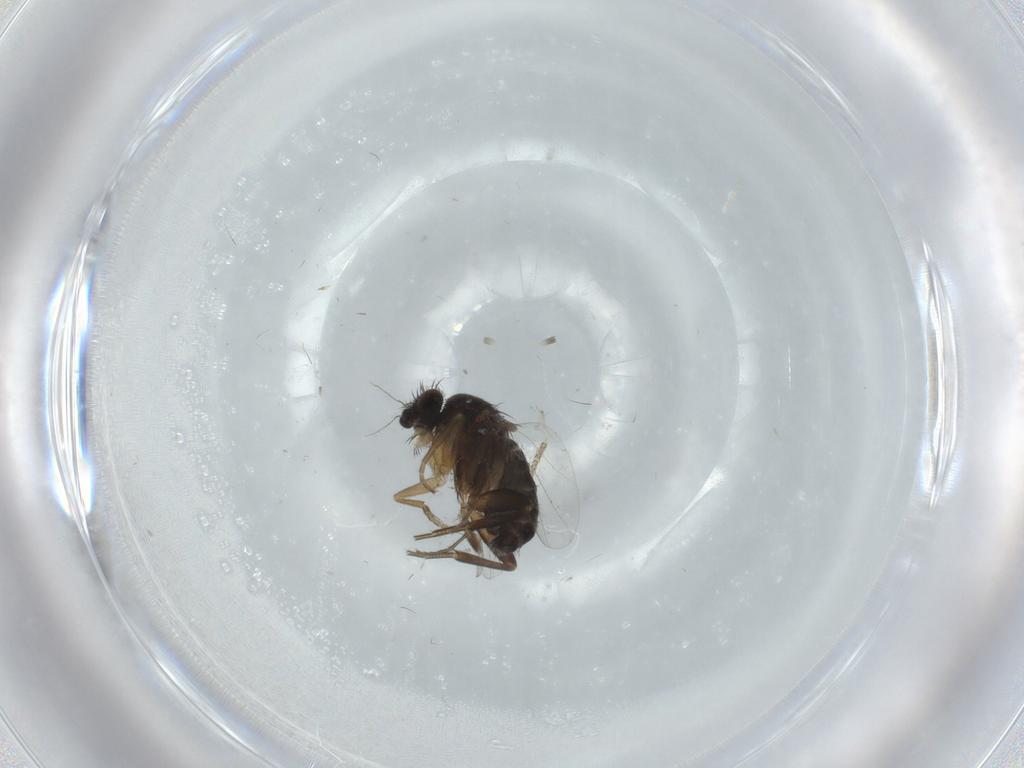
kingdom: Animalia
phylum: Arthropoda
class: Insecta
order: Diptera
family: Phoridae
